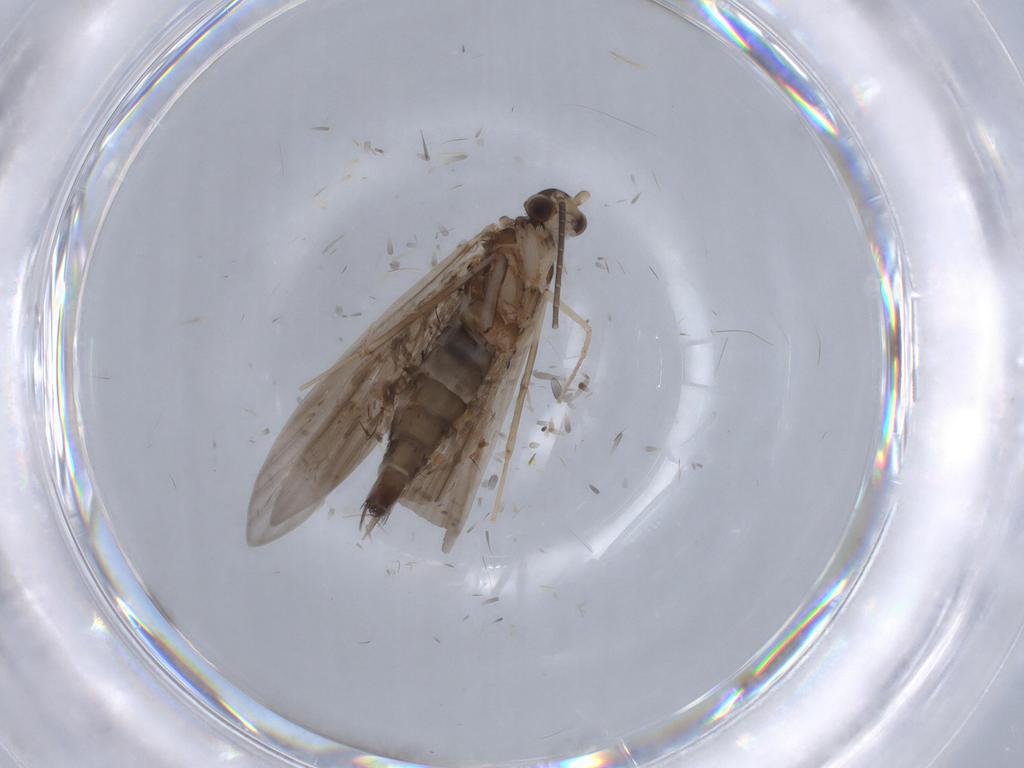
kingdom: Animalia
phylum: Arthropoda
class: Insecta
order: Trichoptera
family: Xiphocentronidae
